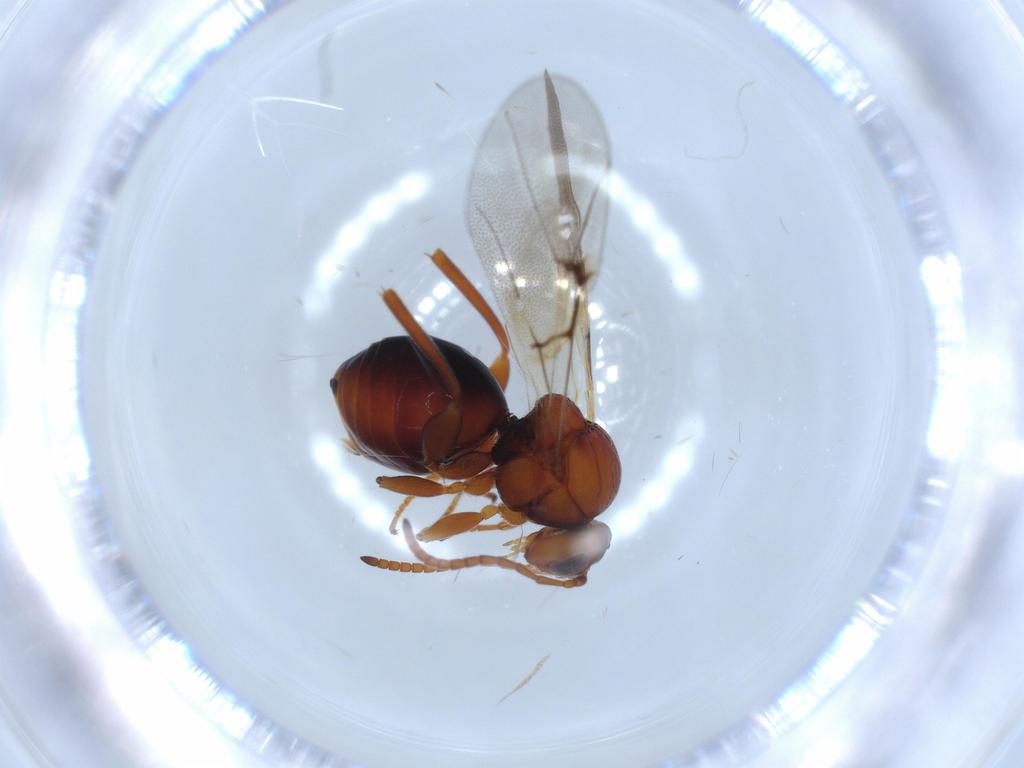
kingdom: Animalia
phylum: Arthropoda
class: Insecta
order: Hymenoptera
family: Cynipidae
